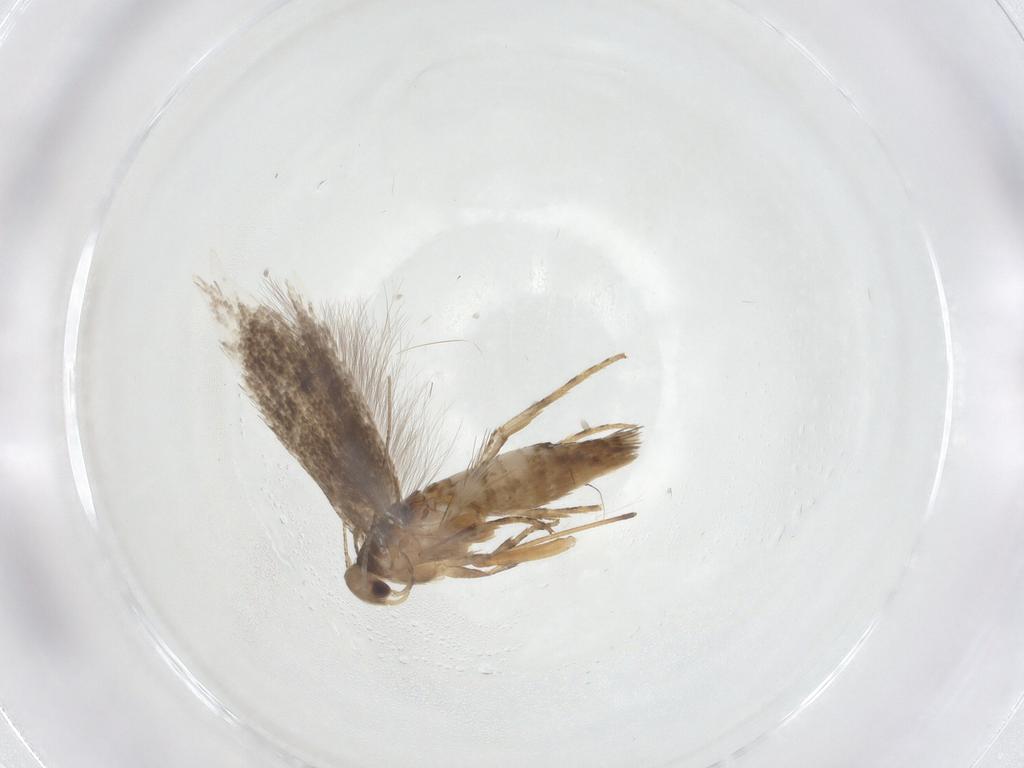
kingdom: Animalia
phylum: Arthropoda
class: Insecta
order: Lepidoptera
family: Elachistidae
